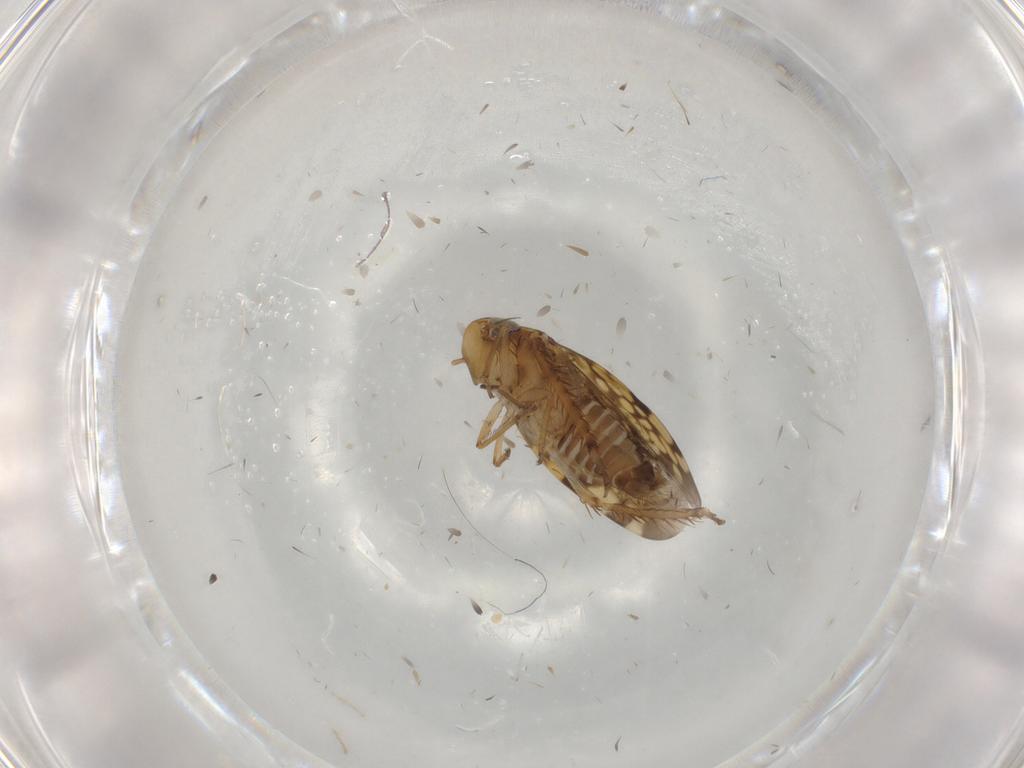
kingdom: Animalia
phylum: Arthropoda
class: Insecta
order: Hemiptera
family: Cicadellidae
